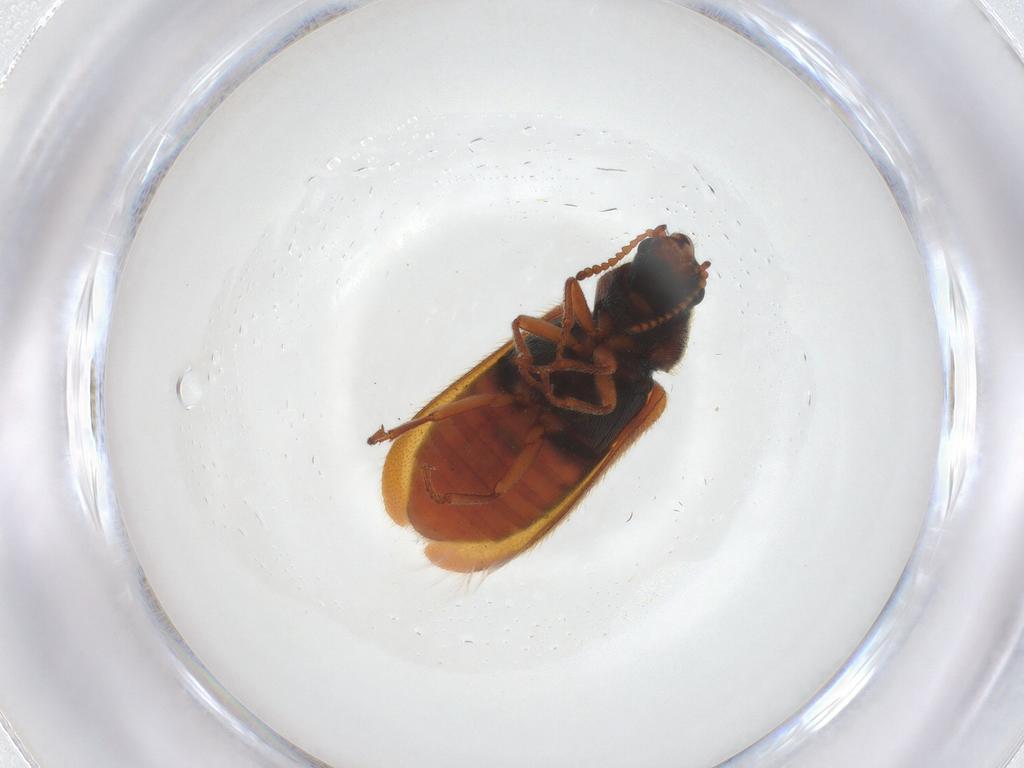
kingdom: Animalia
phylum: Arthropoda
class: Insecta
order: Coleoptera
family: Melyridae
